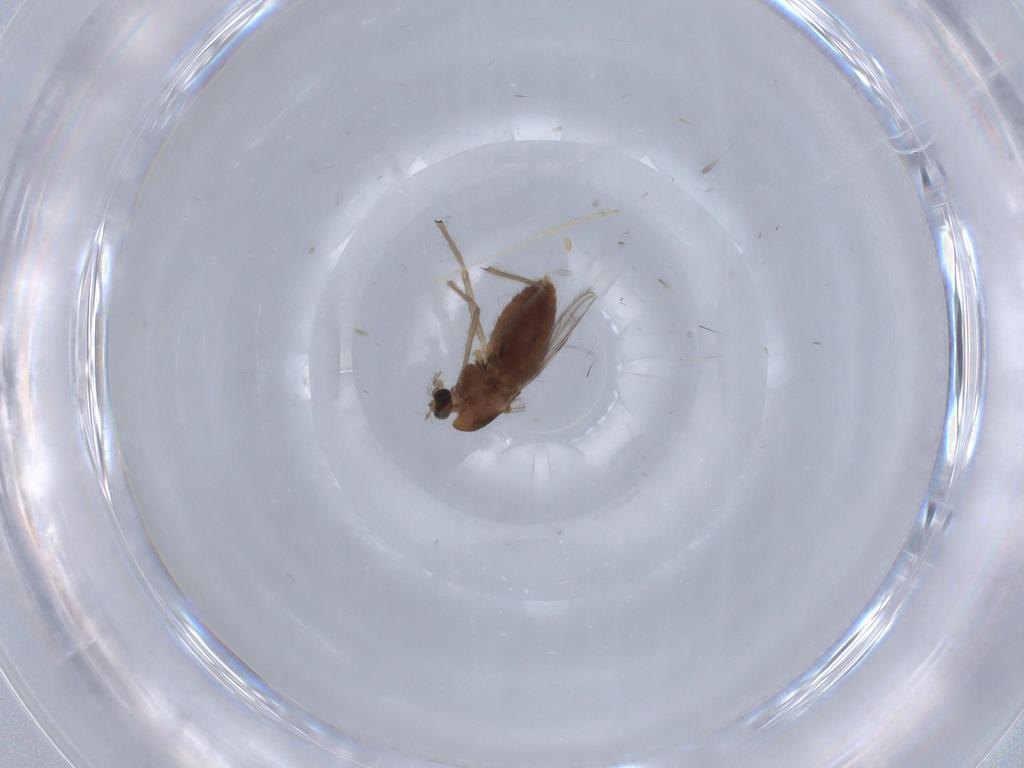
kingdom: Animalia
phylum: Arthropoda
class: Insecta
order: Diptera
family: Chironomidae
